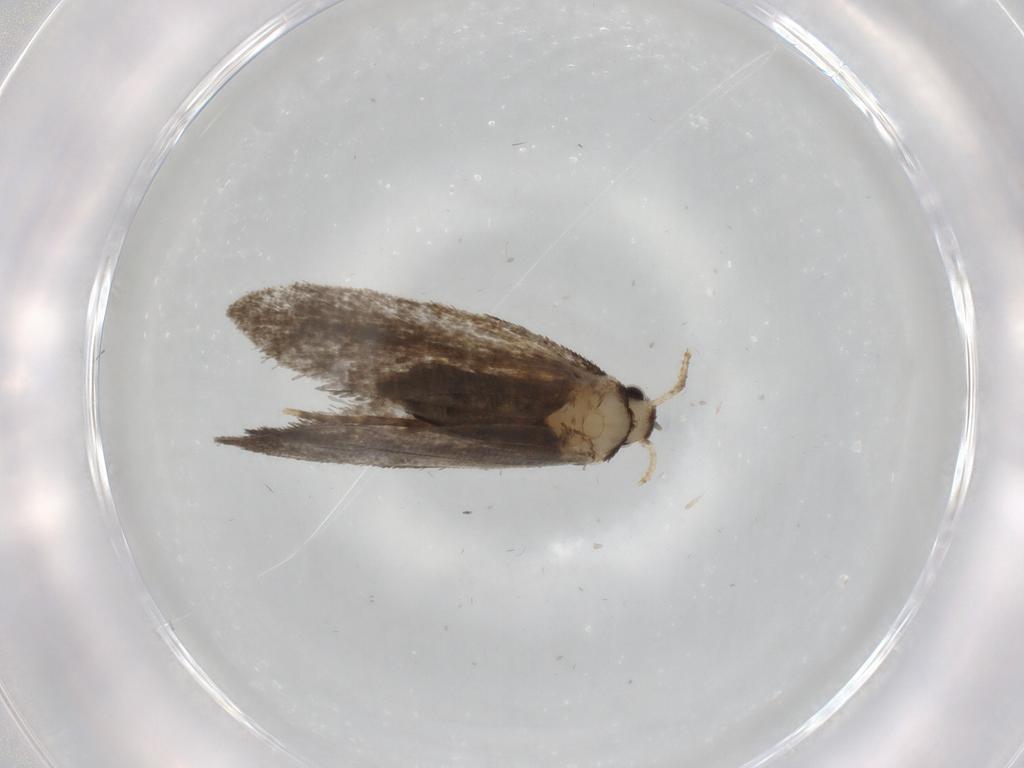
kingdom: Animalia
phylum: Arthropoda
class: Insecta
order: Lepidoptera
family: Psychidae
